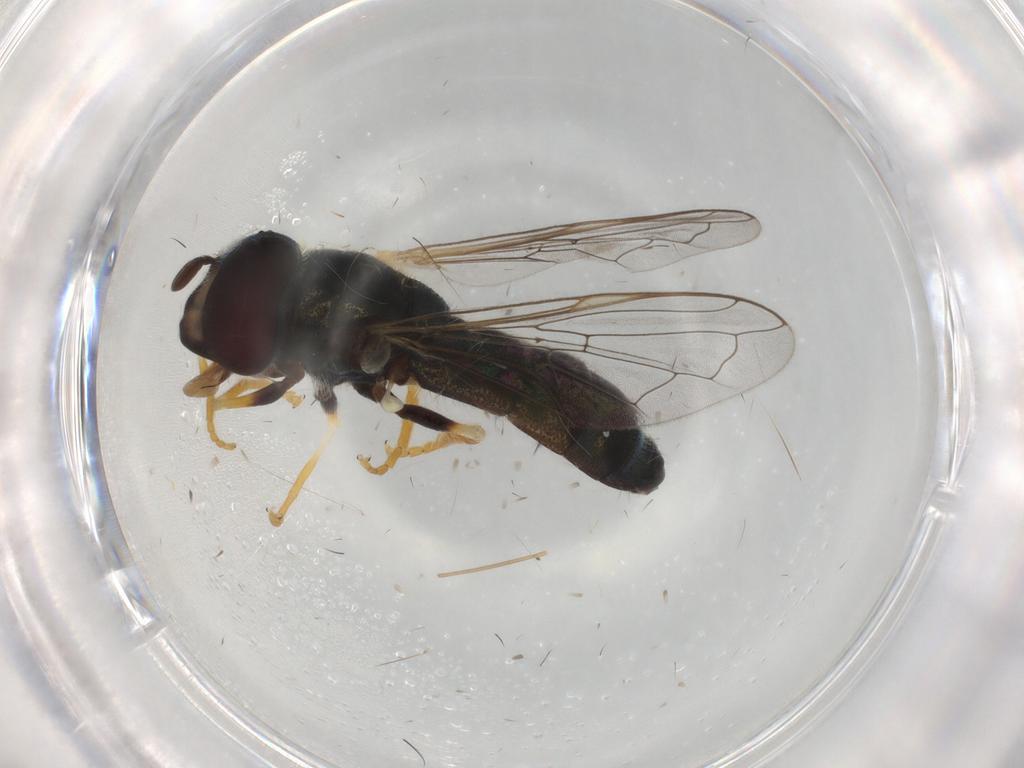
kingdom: Animalia
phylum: Arthropoda
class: Insecta
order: Diptera
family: Syrphidae
